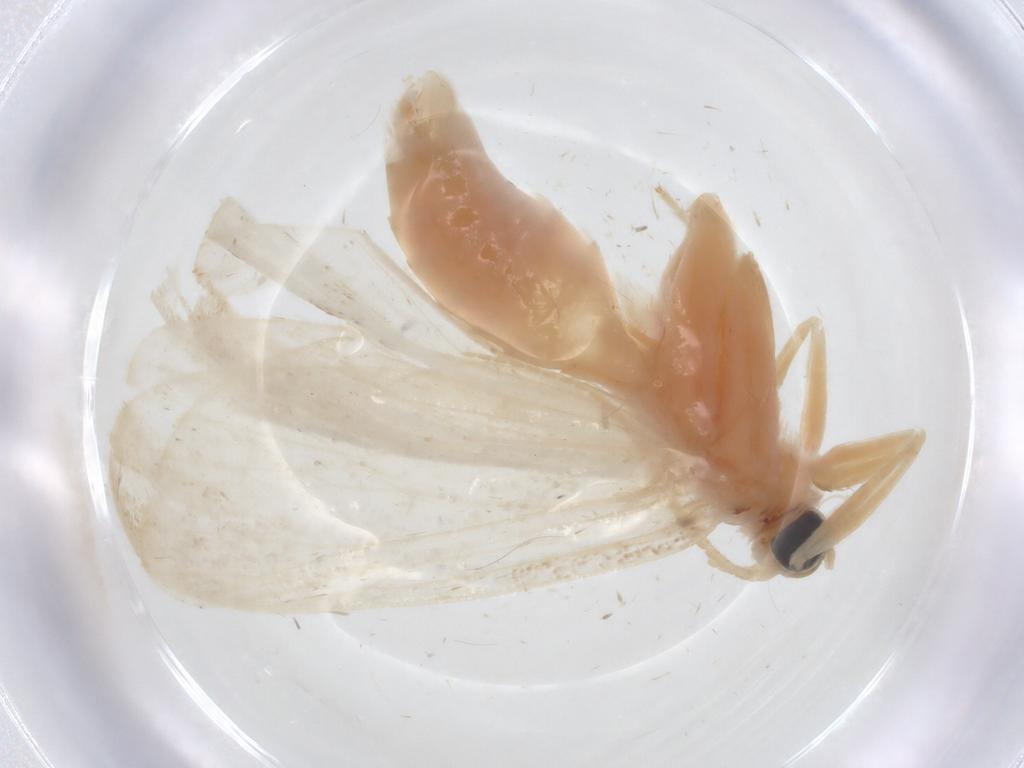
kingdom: Animalia
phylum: Arthropoda
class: Insecta
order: Lepidoptera
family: Crambidae
